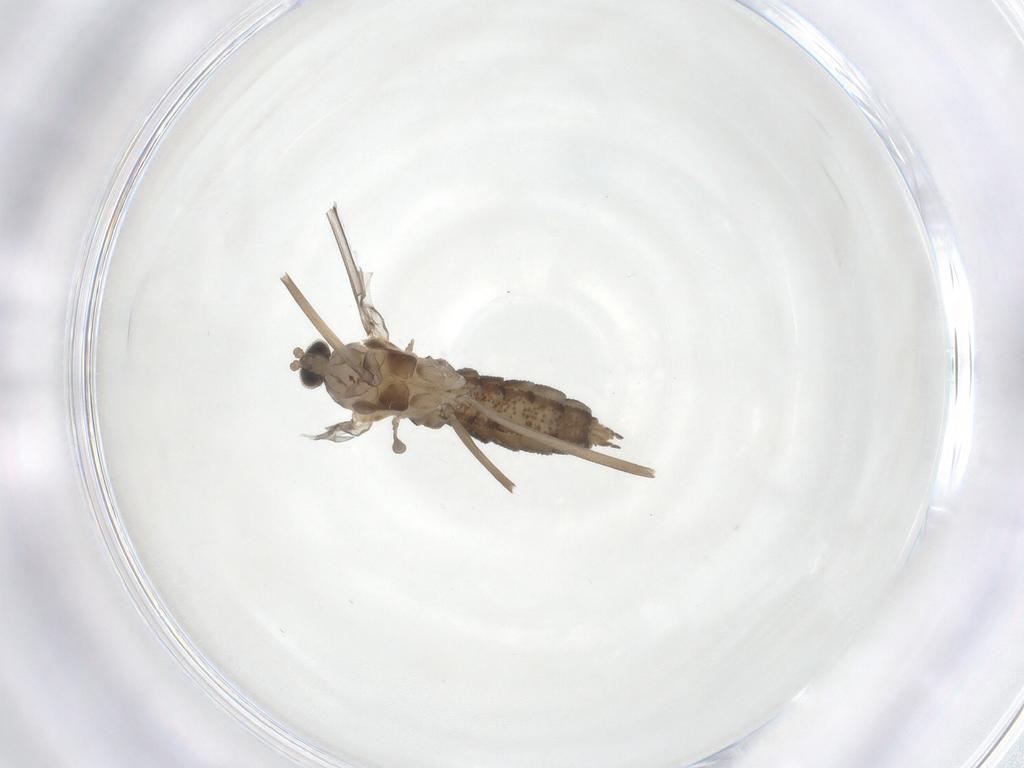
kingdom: Animalia
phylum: Arthropoda
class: Insecta
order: Diptera
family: Cecidomyiidae
